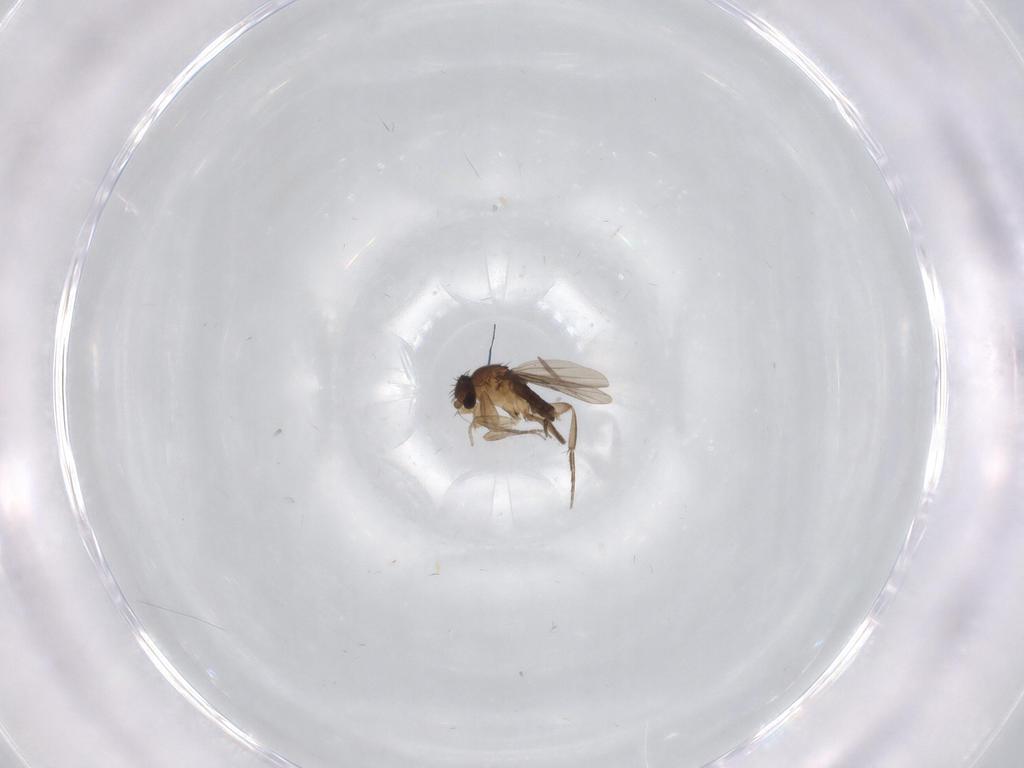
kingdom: Animalia
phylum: Arthropoda
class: Insecta
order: Diptera
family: Phoridae
